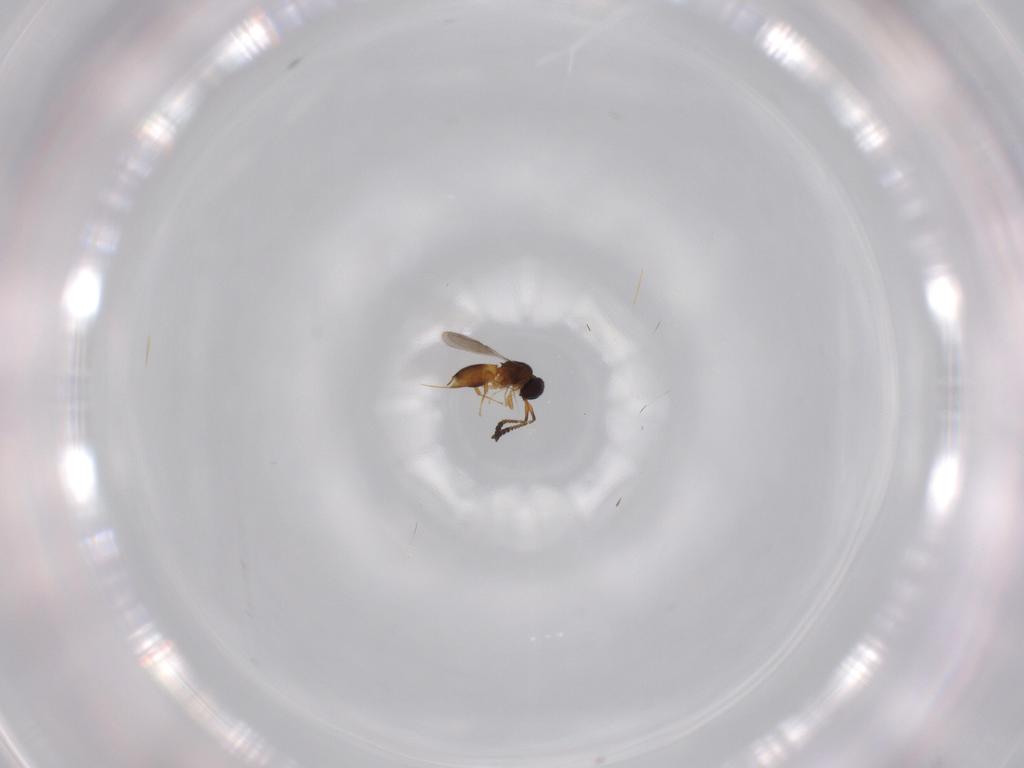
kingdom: Animalia
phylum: Arthropoda
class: Insecta
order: Hymenoptera
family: Ceraphronidae
